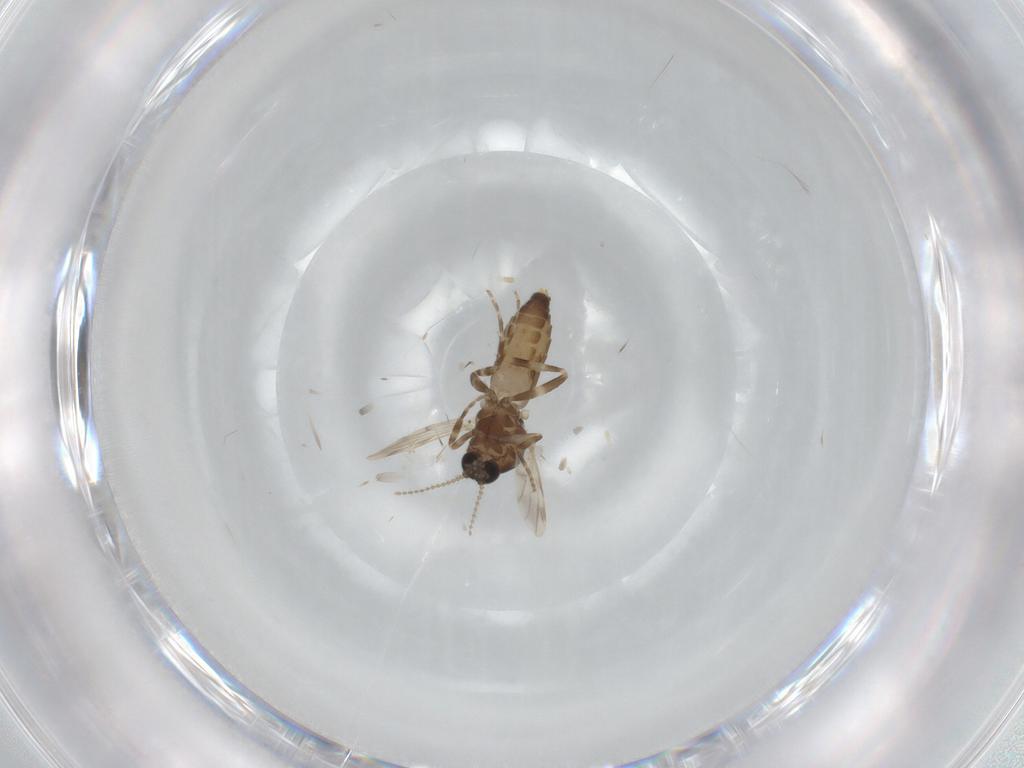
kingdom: Animalia
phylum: Arthropoda
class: Insecta
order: Diptera
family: Ceratopogonidae
